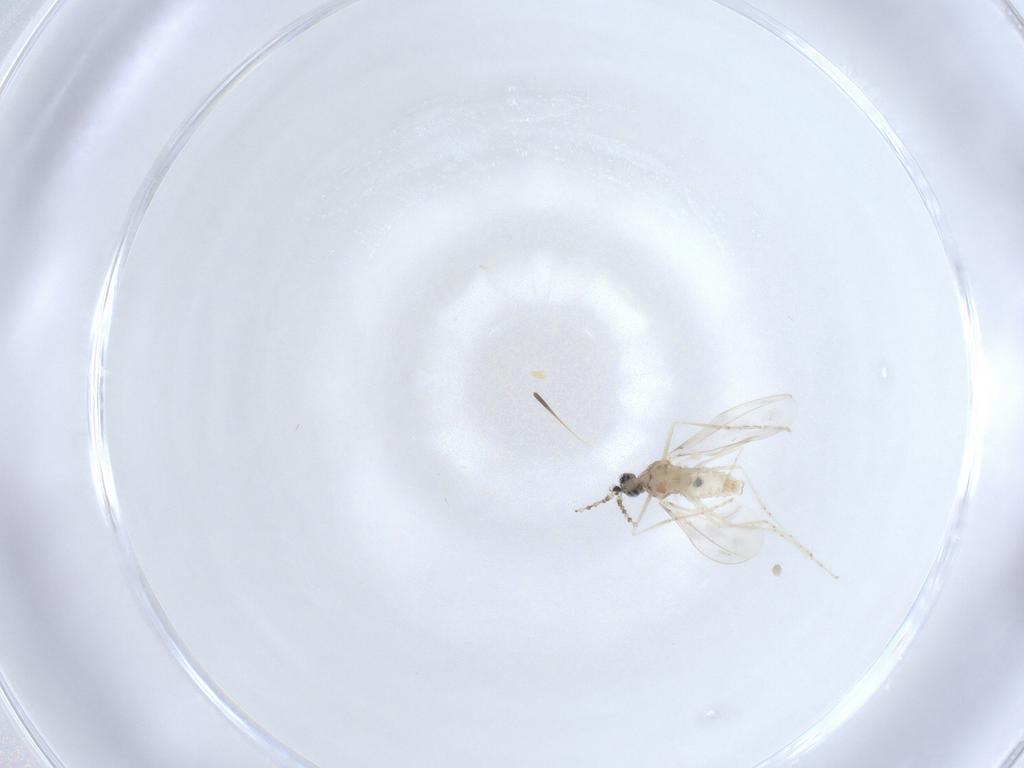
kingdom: Animalia
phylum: Arthropoda
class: Insecta
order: Diptera
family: Cecidomyiidae
